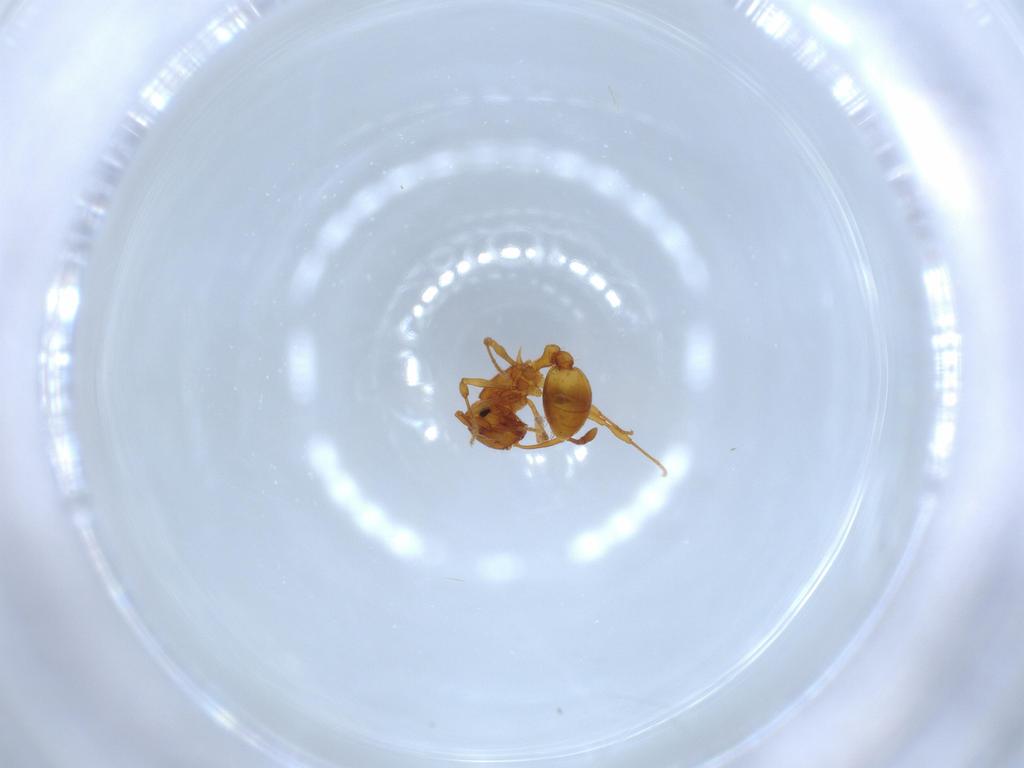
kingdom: Animalia
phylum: Arthropoda
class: Insecta
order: Hymenoptera
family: Formicidae
